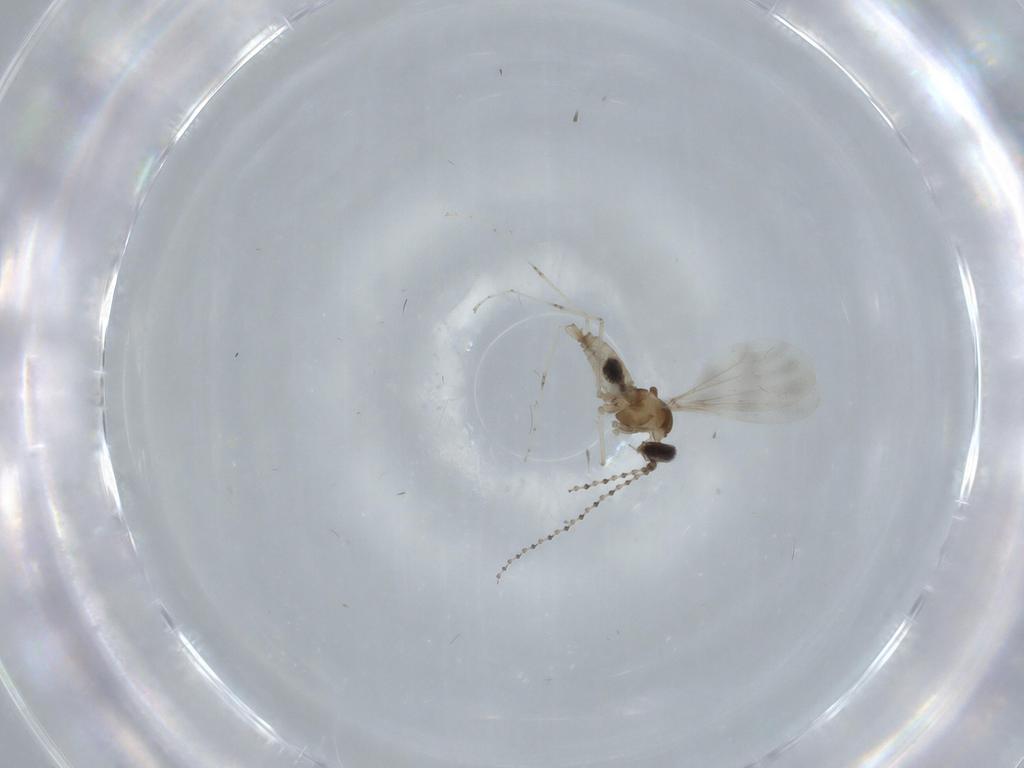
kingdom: Animalia
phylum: Arthropoda
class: Insecta
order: Diptera
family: Cecidomyiidae
